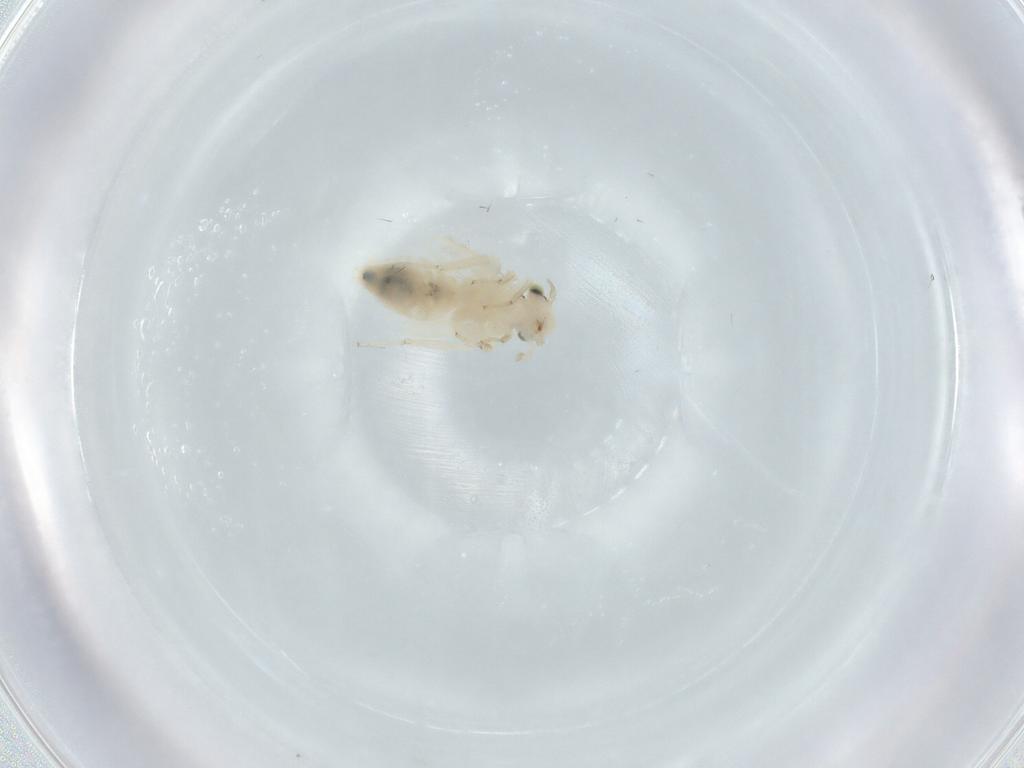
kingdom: Animalia
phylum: Arthropoda
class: Insecta
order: Psocodea
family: Lepidopsocidae
